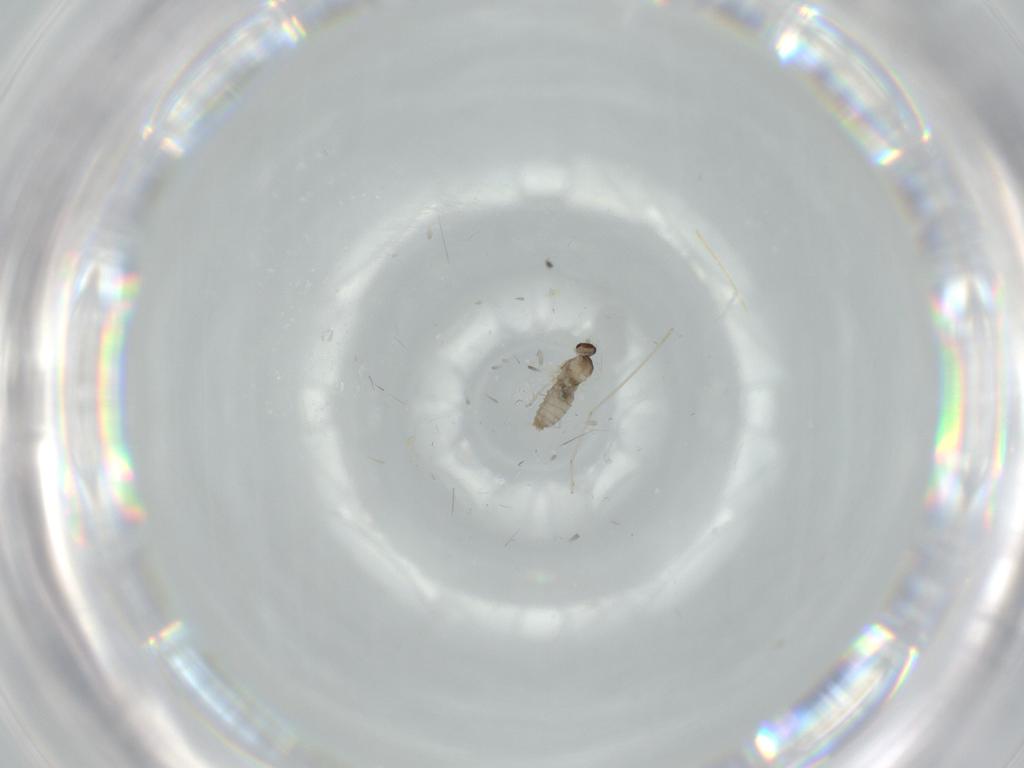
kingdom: Animalia
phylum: Arthropoda
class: Insecta
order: Diptera
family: Cecidomyiidae
